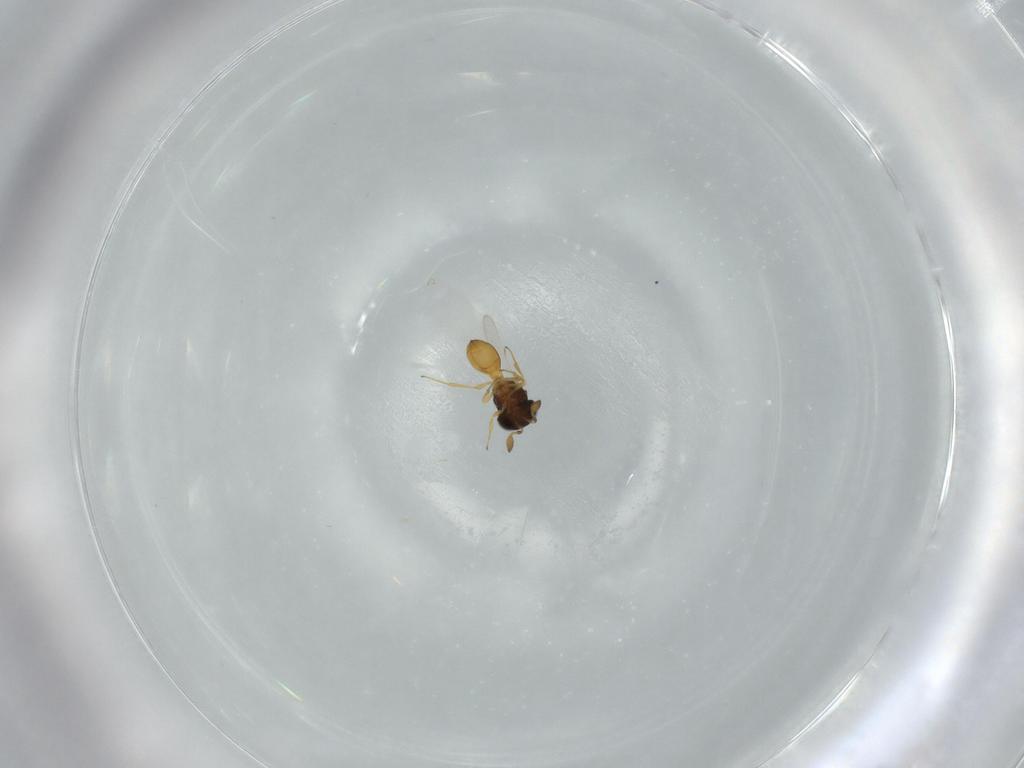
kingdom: Animalia
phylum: Arthropoda
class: Insecta
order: Hymenoptera
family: Scelionidae
